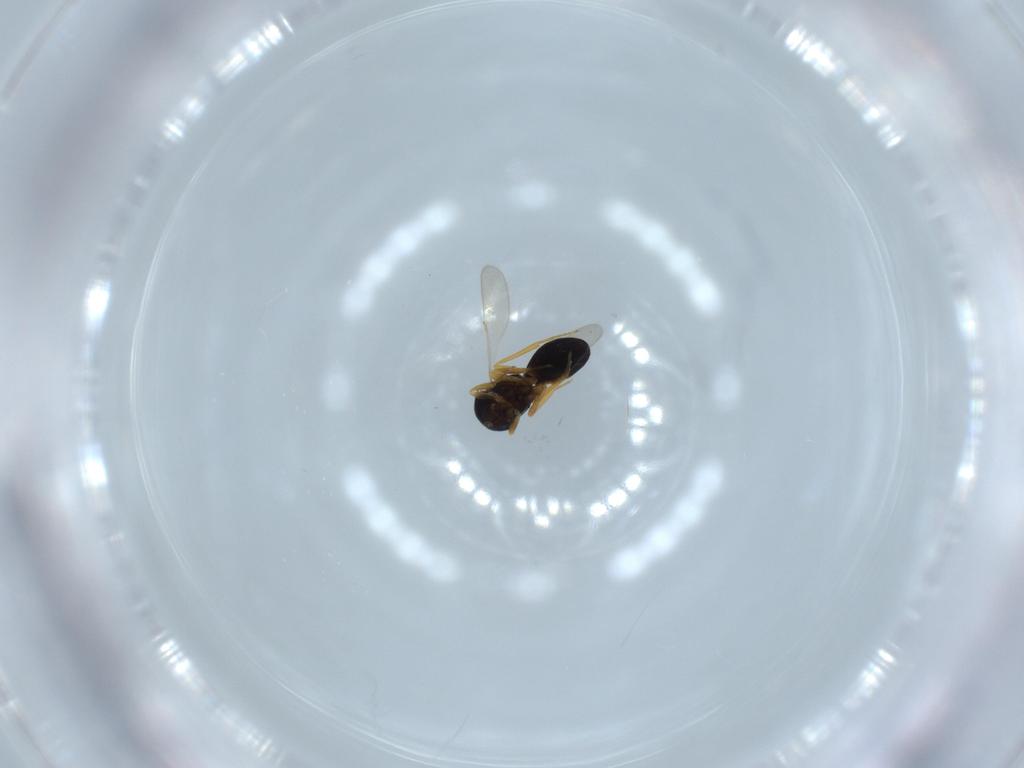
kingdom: Animalia
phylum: Arthropoda
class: Insecta
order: Hymenoptera
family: Scelionidae
